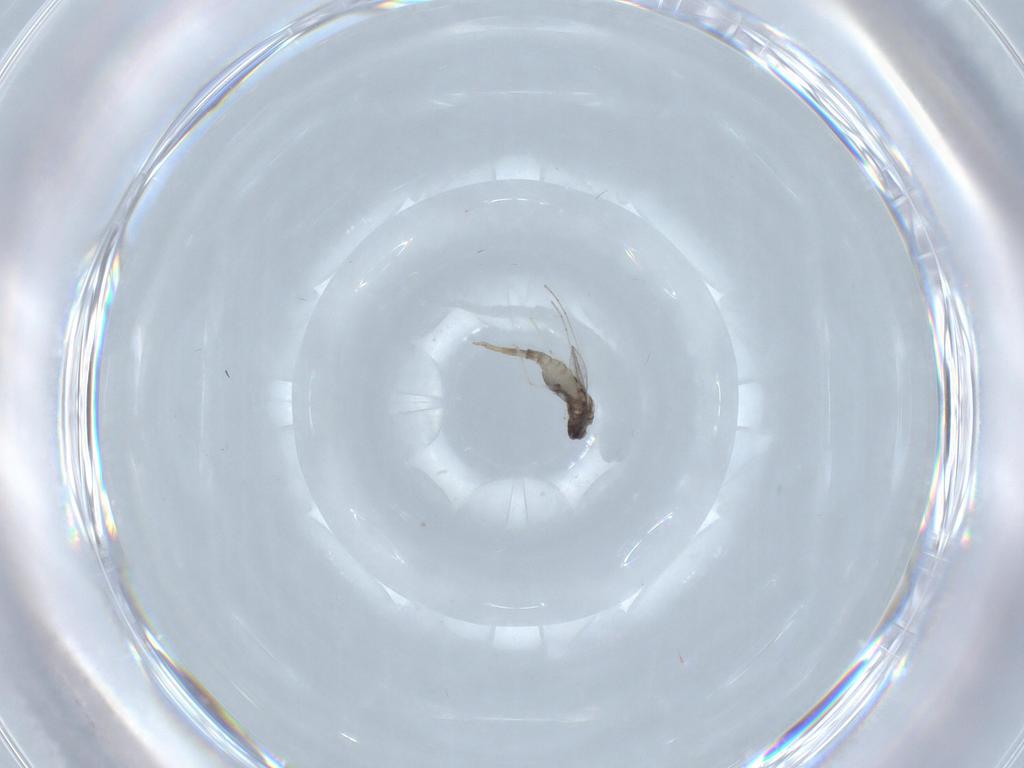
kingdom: Animalia
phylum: Arthropoda
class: Insecta
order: Diptera
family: Cecidomyiidae
